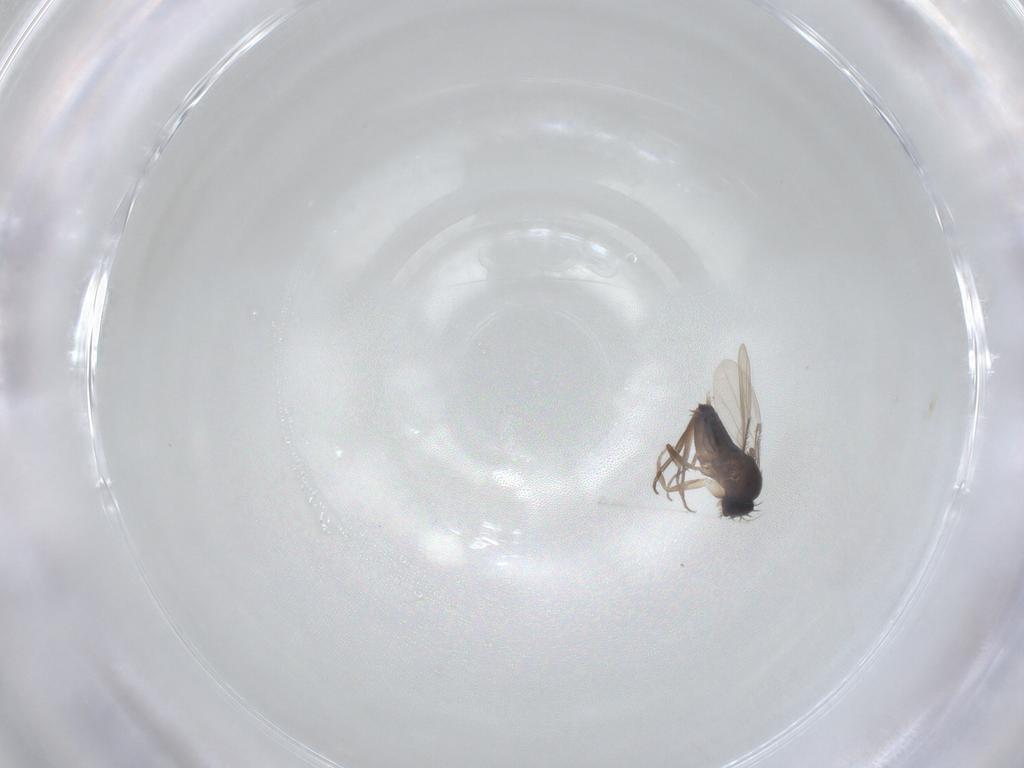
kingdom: Animalia
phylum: Arthropoda
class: Insecta
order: Diptera
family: Phoridae
